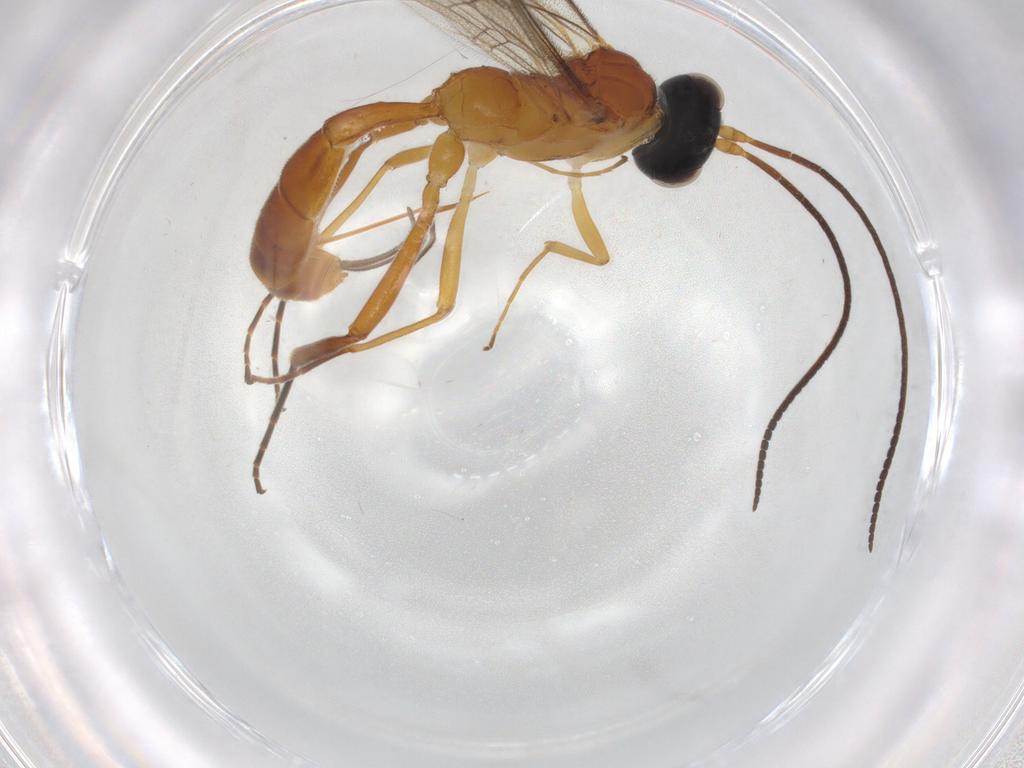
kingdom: Animalia
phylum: Arthropoda
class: Insecta
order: Hymenoptera
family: Ichneumonidae
